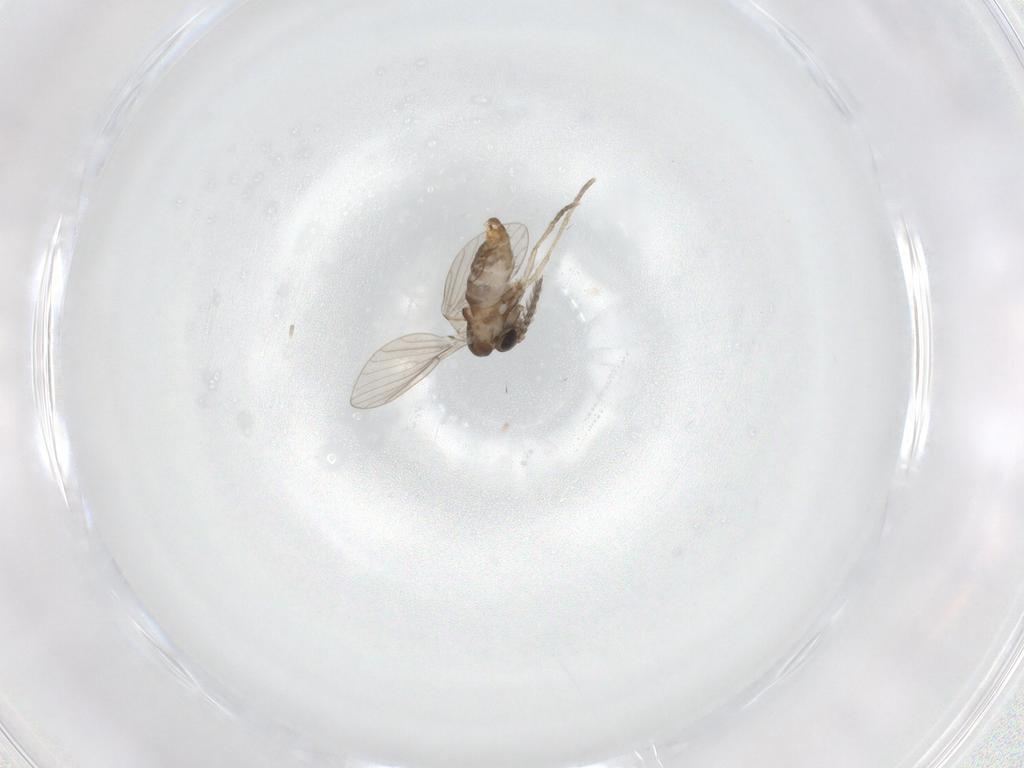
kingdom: Animalia
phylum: Arthropoda
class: Insecta
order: Diptera
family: Psychodidae
